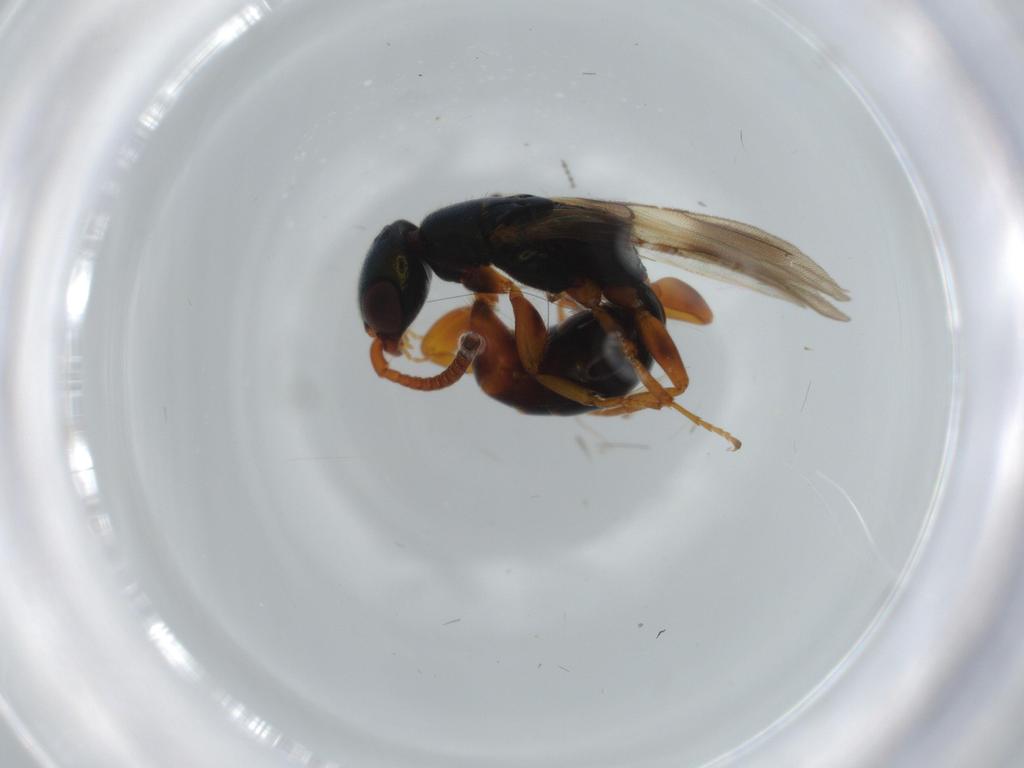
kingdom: Animalia
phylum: Arthropoda
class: Insecta
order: Hymenoptera
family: Bethylidae
